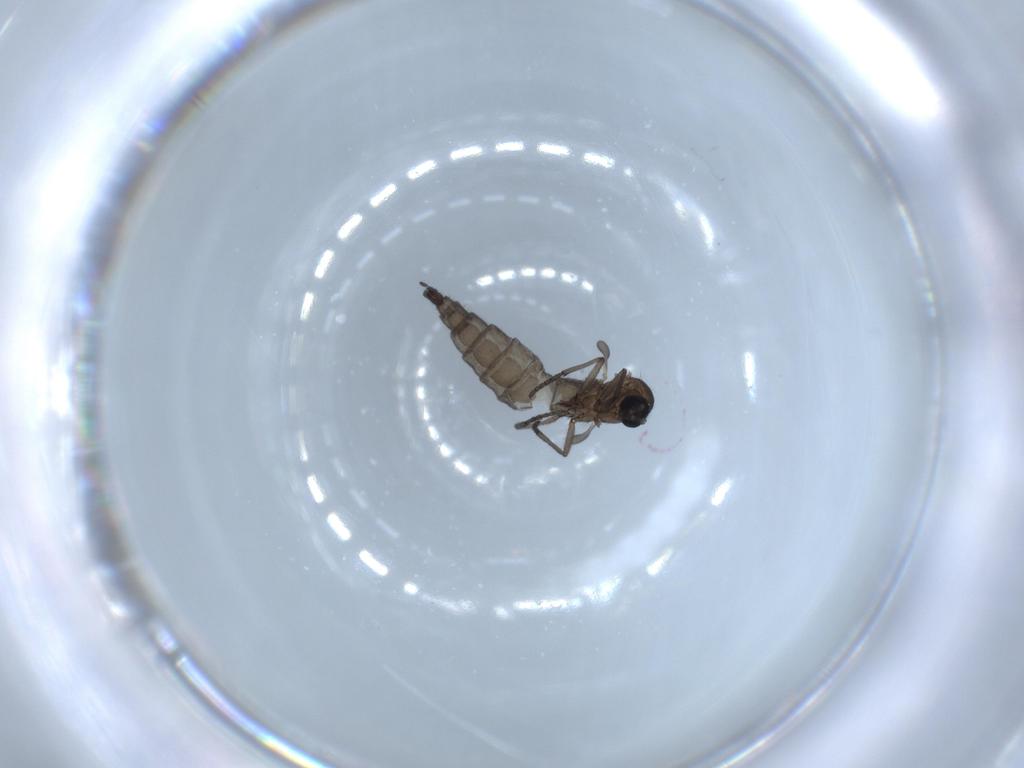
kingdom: Animalia
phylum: Arthropoda
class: Insecta
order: Diptera
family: Sciaridae
